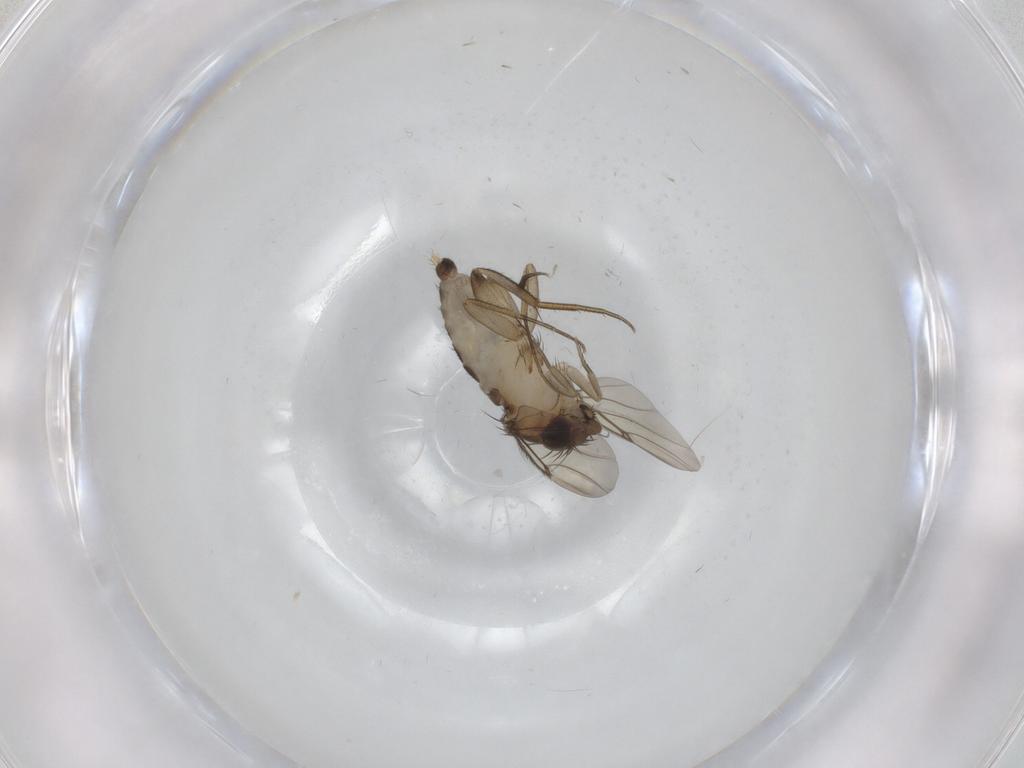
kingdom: Animalia
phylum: Arthropoda
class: Insecta
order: Diptera
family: Phoridae
